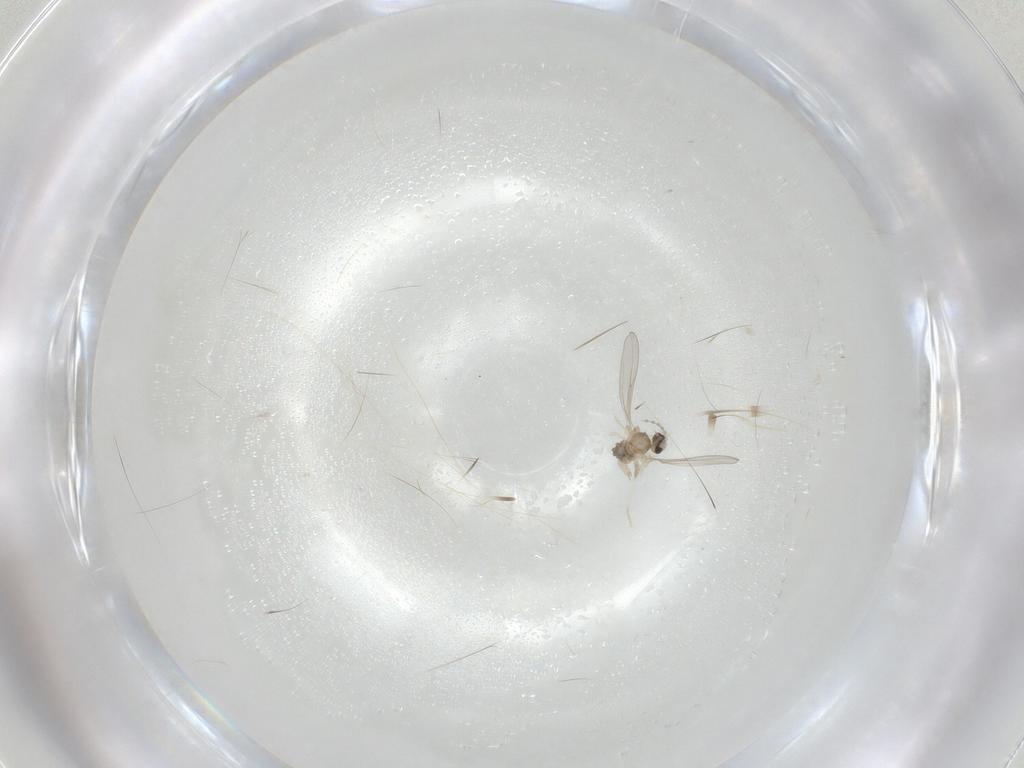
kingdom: Animalia
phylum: Arthropoda
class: Insecta
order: Diptera
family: Cecidomyiidae
